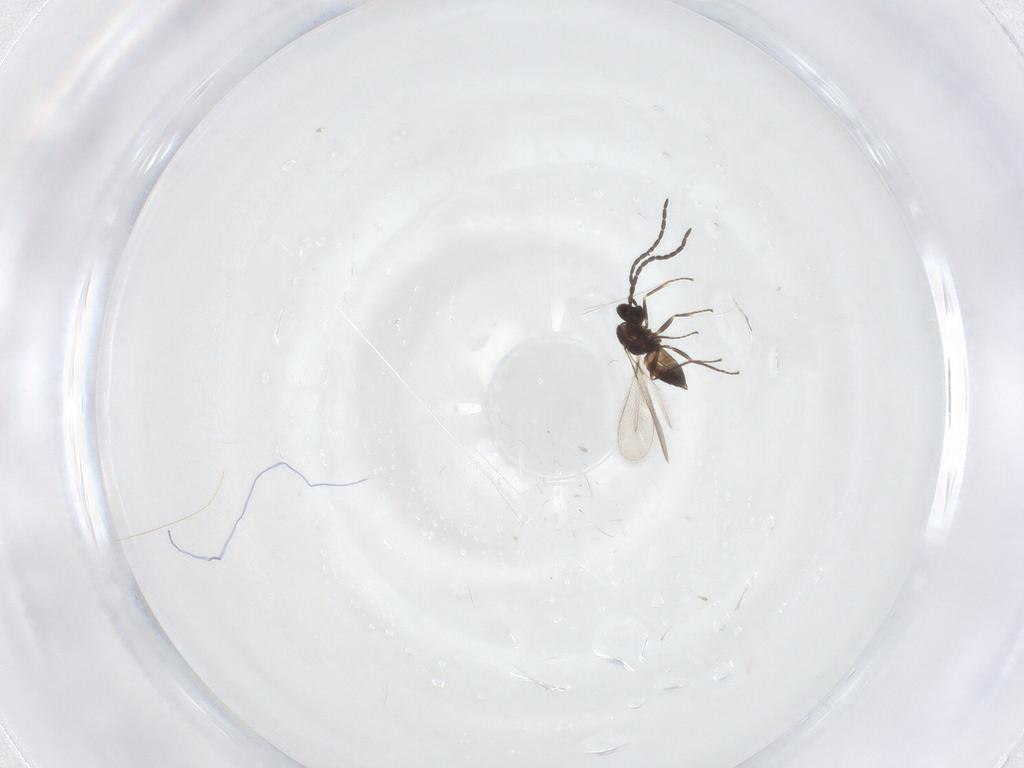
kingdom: Animalia
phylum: Arthropoda
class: Insecta
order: Hymenoptera
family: Mymaridae
